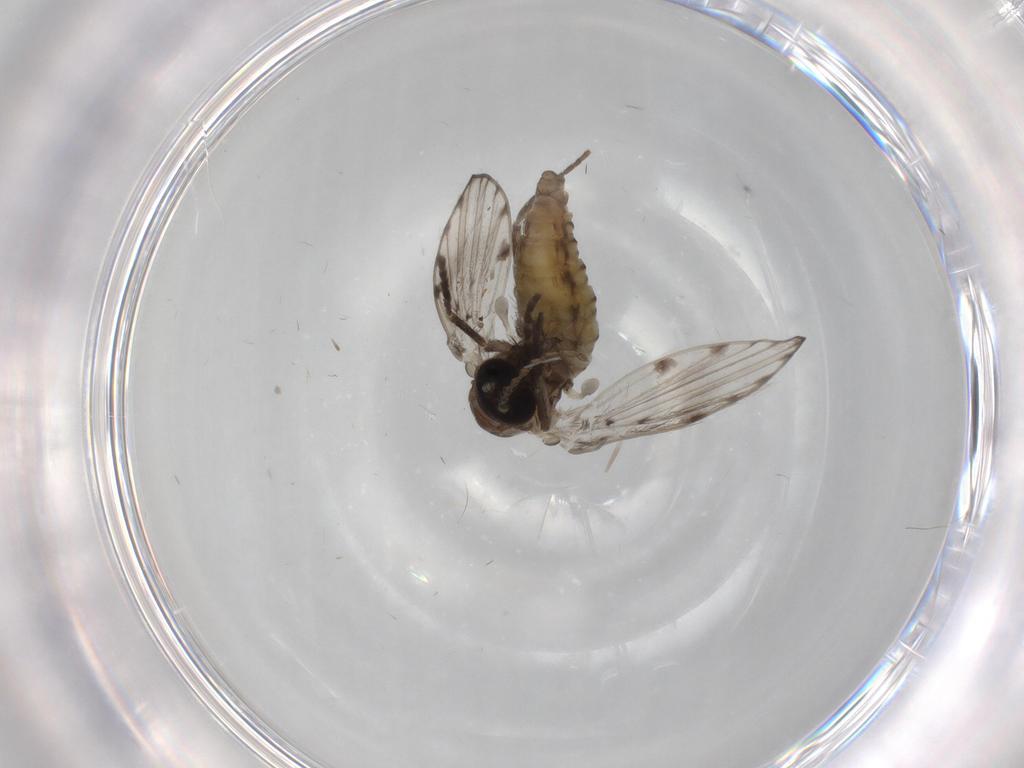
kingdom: Animalia
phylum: Arthropoda
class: Insecta
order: Diptera
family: Psychodidae
